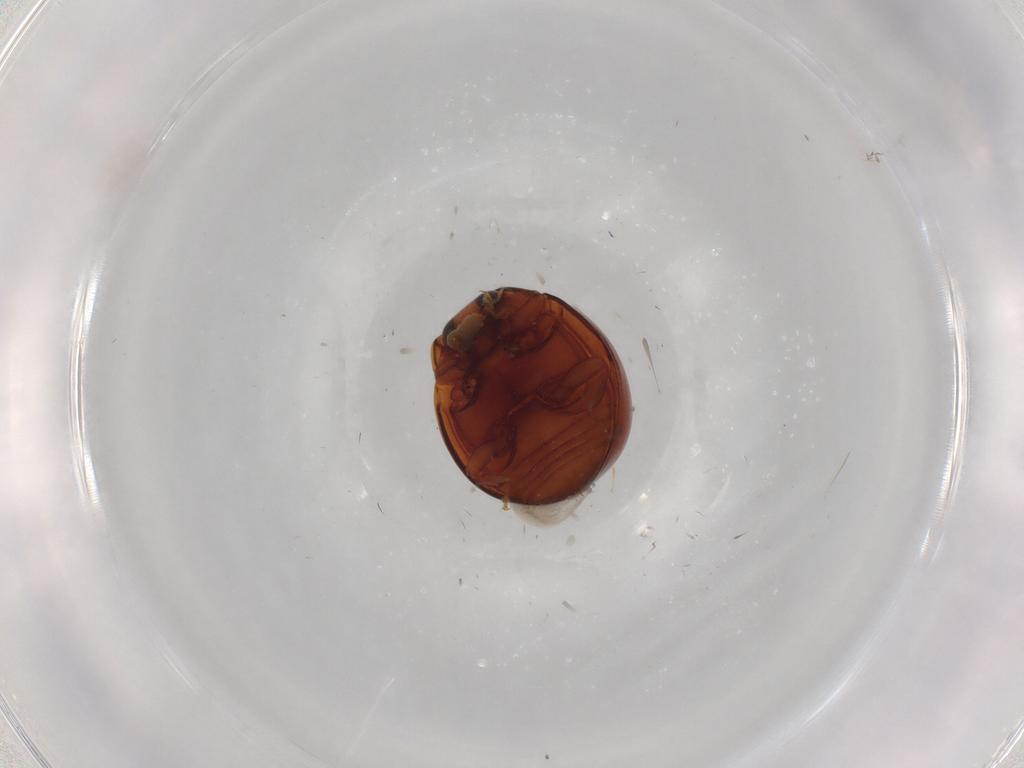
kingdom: Animalia
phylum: Arthropoda
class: Insecta
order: Coleoptera
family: Coccinellidae
